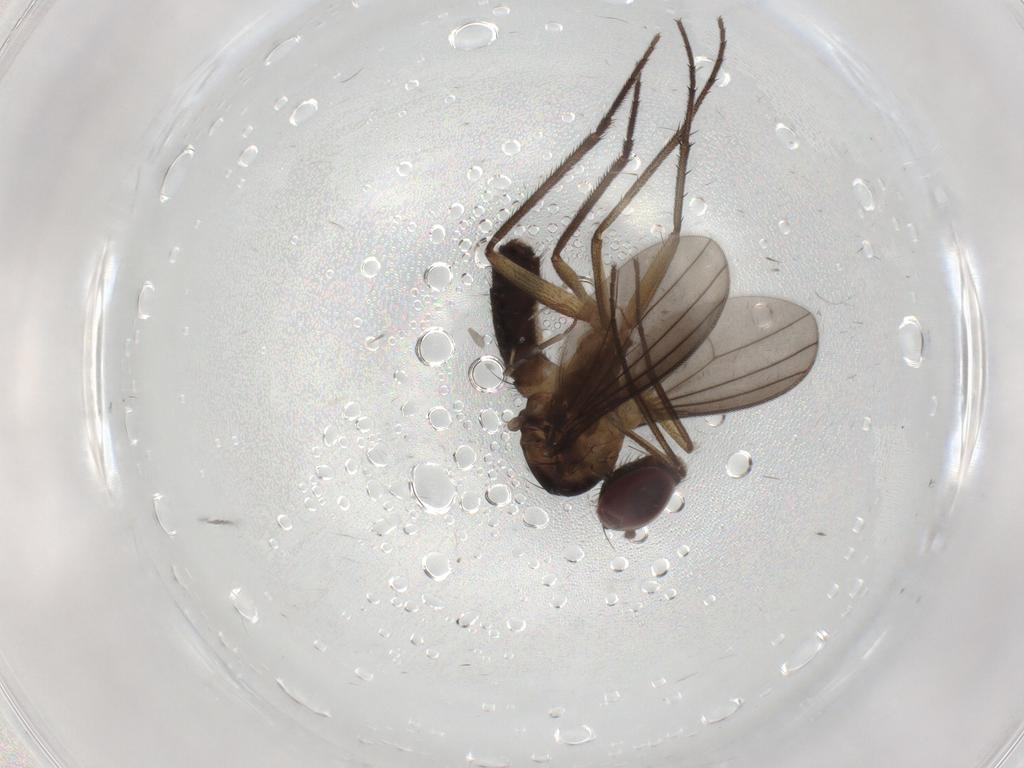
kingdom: Animalia
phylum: Arthropoda
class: Insecta
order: Diptera
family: Dolichopodidae
